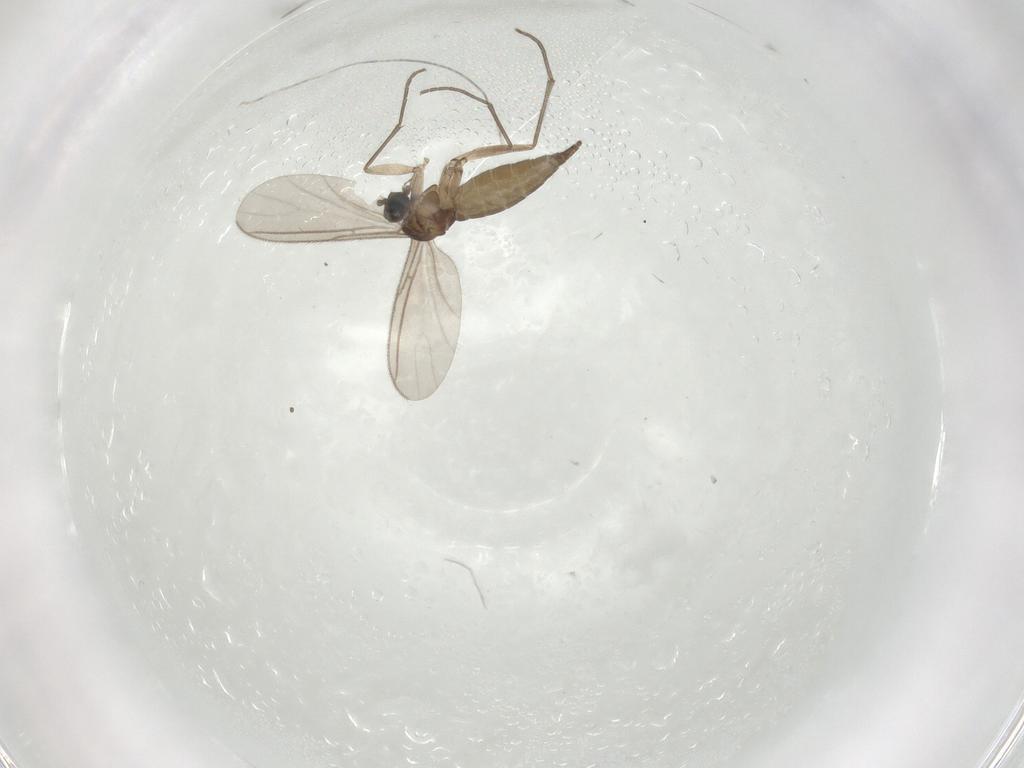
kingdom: Animalia
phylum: Arthropoda
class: Insecta
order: Diptera
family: Sciaridae
